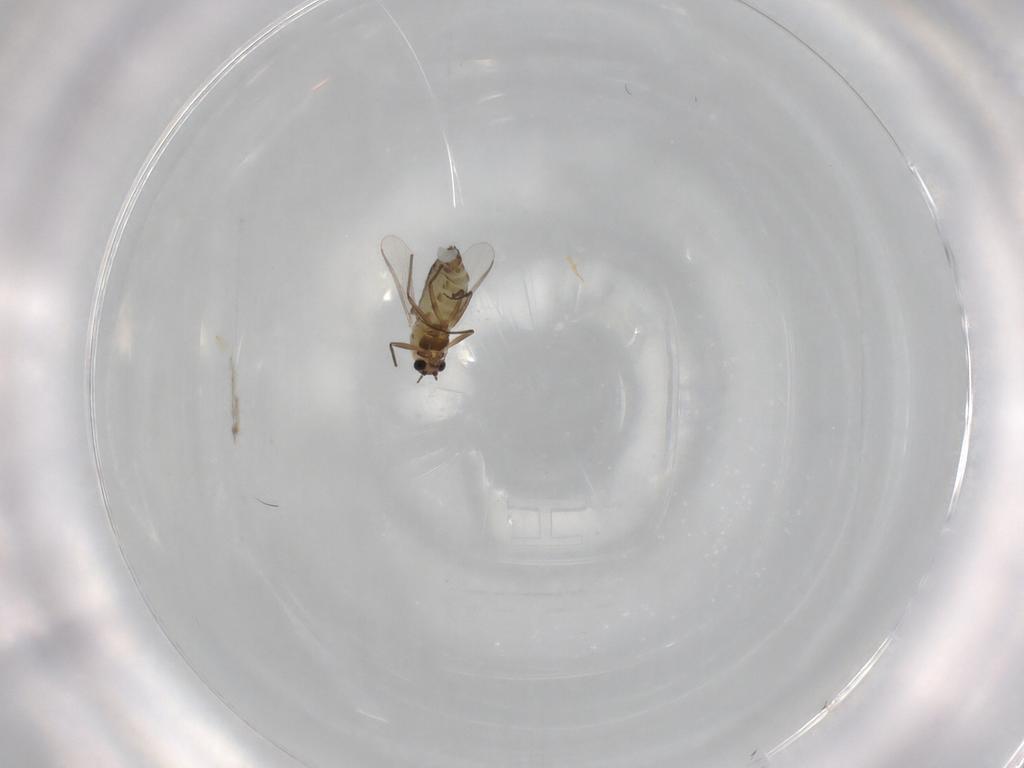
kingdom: Animalia
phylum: Arthropoda
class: Insecta
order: Diptera
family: Chironomidae
